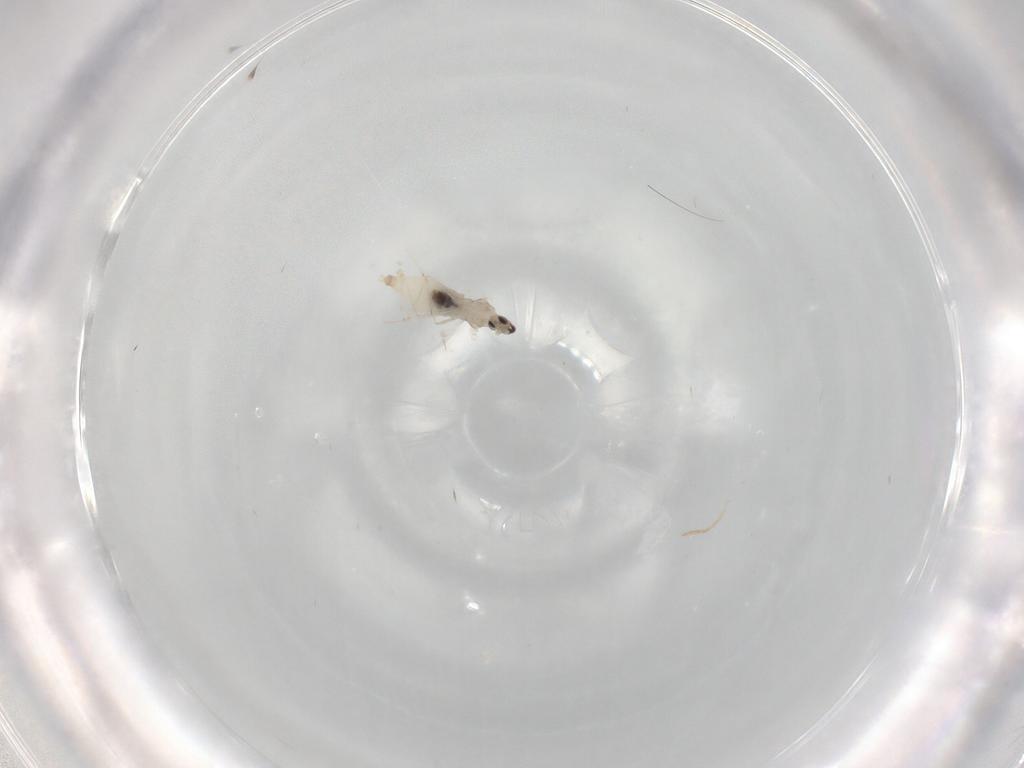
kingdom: Animalia
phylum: Arthropoda
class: Insecta
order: Diptera
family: Cecidomyiidae
